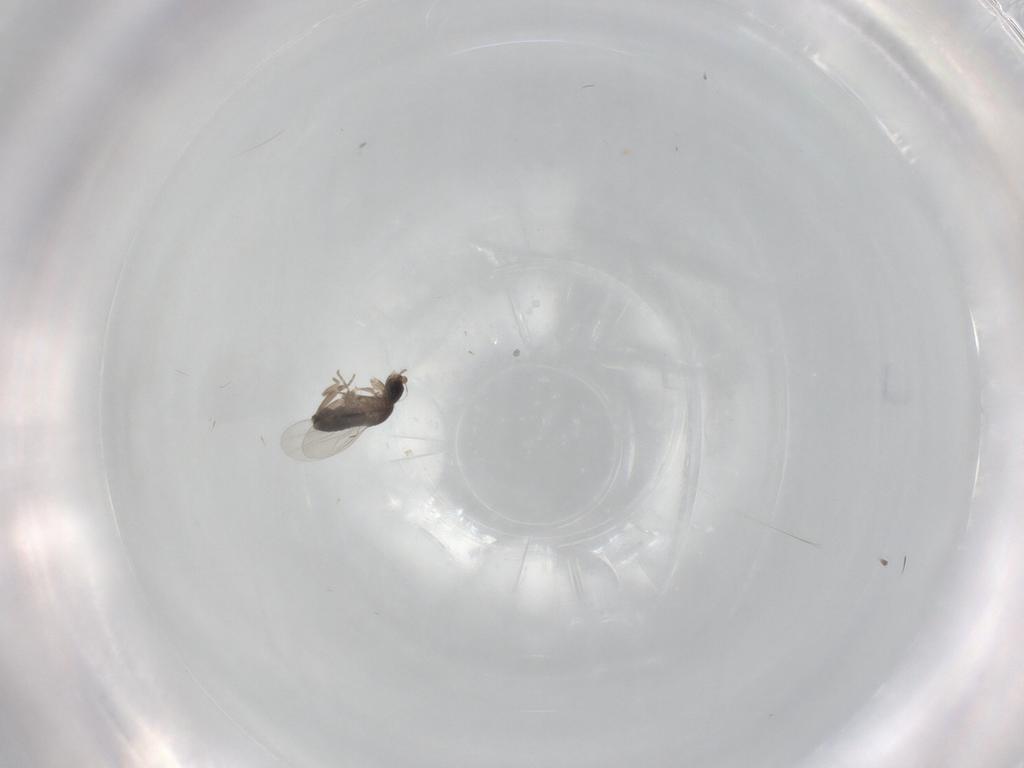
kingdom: Animalia
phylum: Arthropoda
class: Insecta
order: Diptera
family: Phoridae
